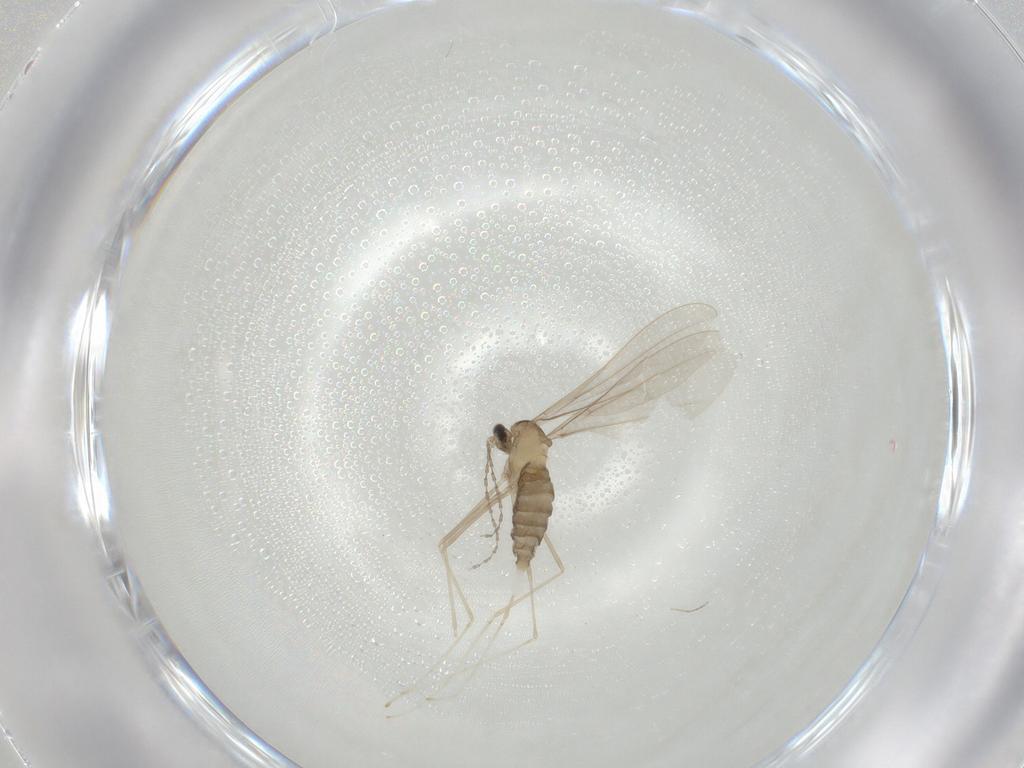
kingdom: Animalia
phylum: Arthropoda
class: Insecta
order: Diptera
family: Cecidomyiidae
